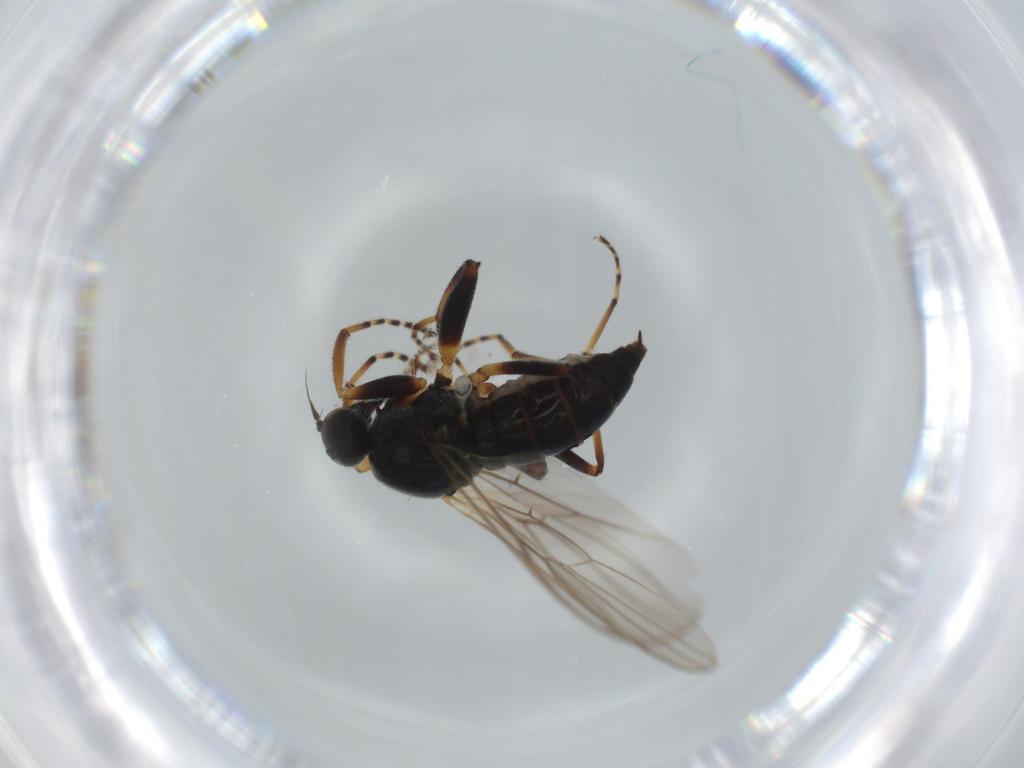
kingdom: Animalia
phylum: Arthropoda
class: Insecta
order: Diptera
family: Hybotidae
